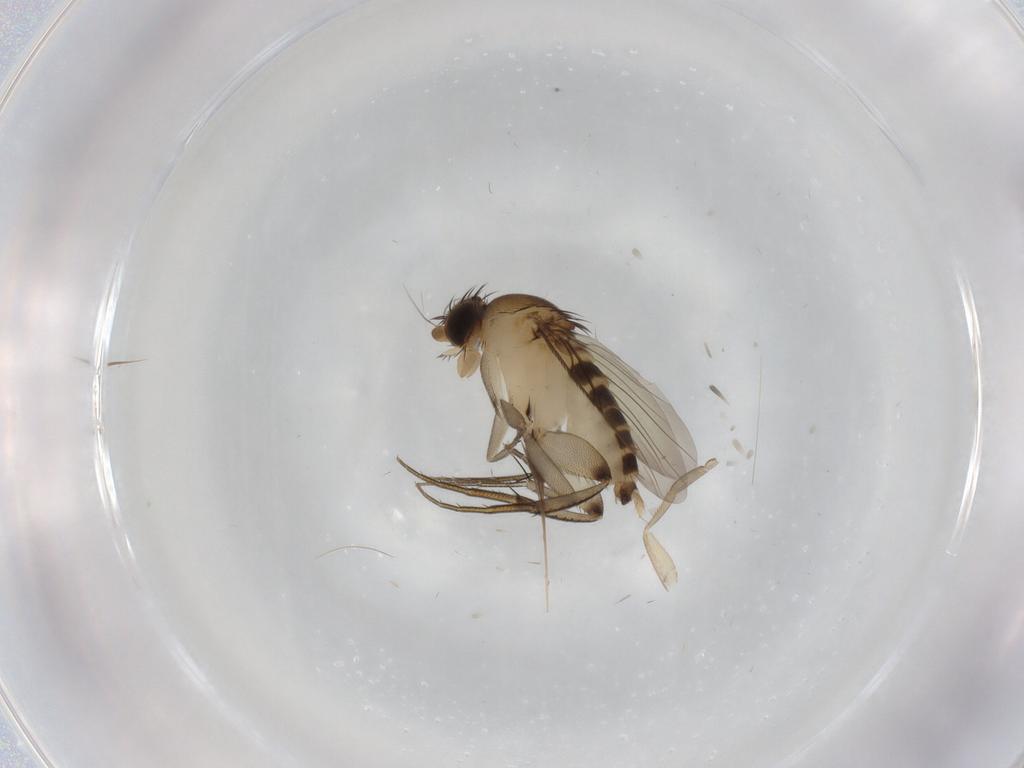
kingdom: Animalia
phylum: Arthropoda
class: Insecta
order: Diptera
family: Phoridae
